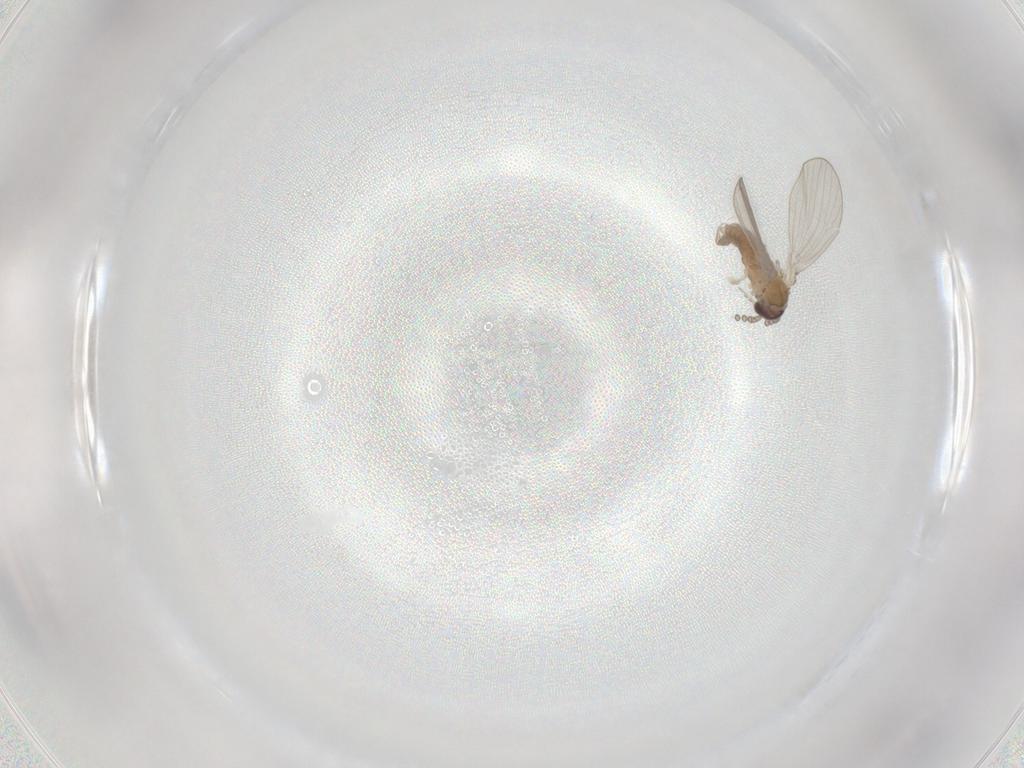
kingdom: Animalia
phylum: Arthropoda
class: Insecta
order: Diptera
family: Psychodidae
